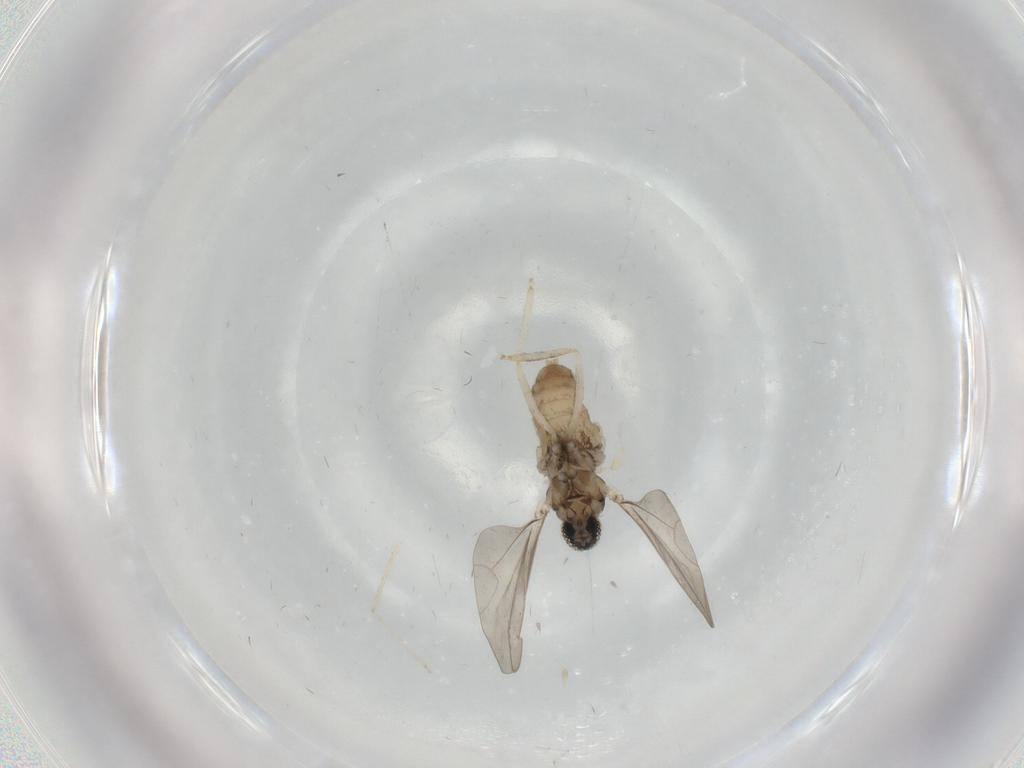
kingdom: Animalia
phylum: Arthropoda
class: Insecta
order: Diptera
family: Cecidomyiidae
